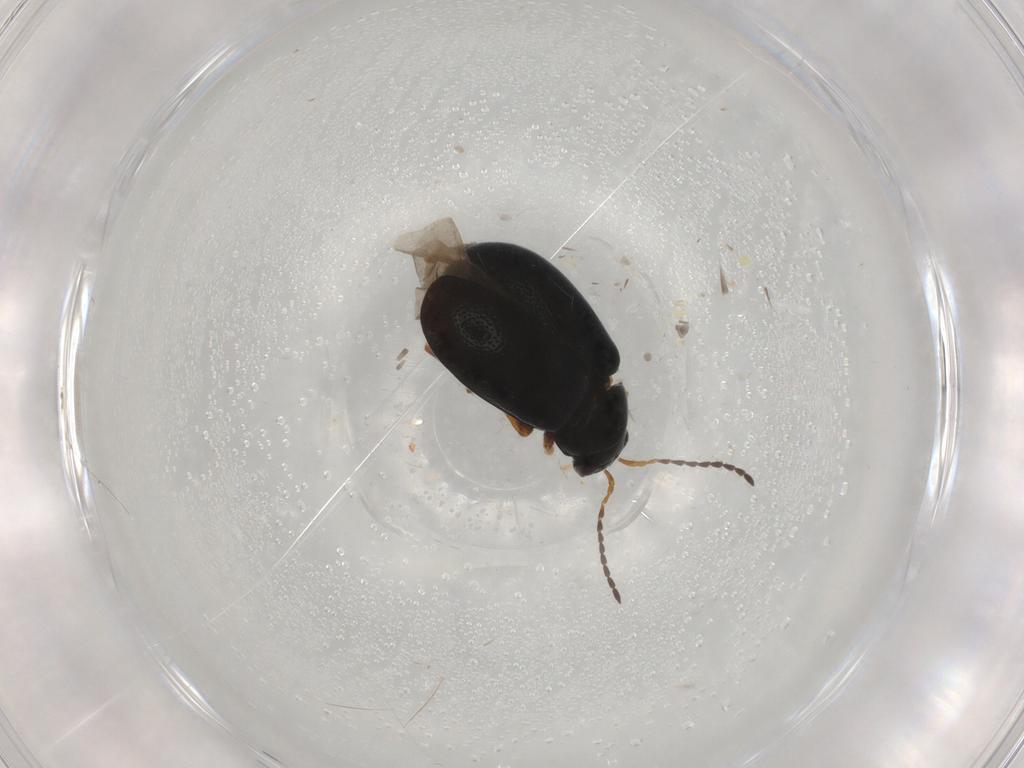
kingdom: Animalia
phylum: Arthropoda
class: Insecta
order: Coleoptera
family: Chrysomelidae
